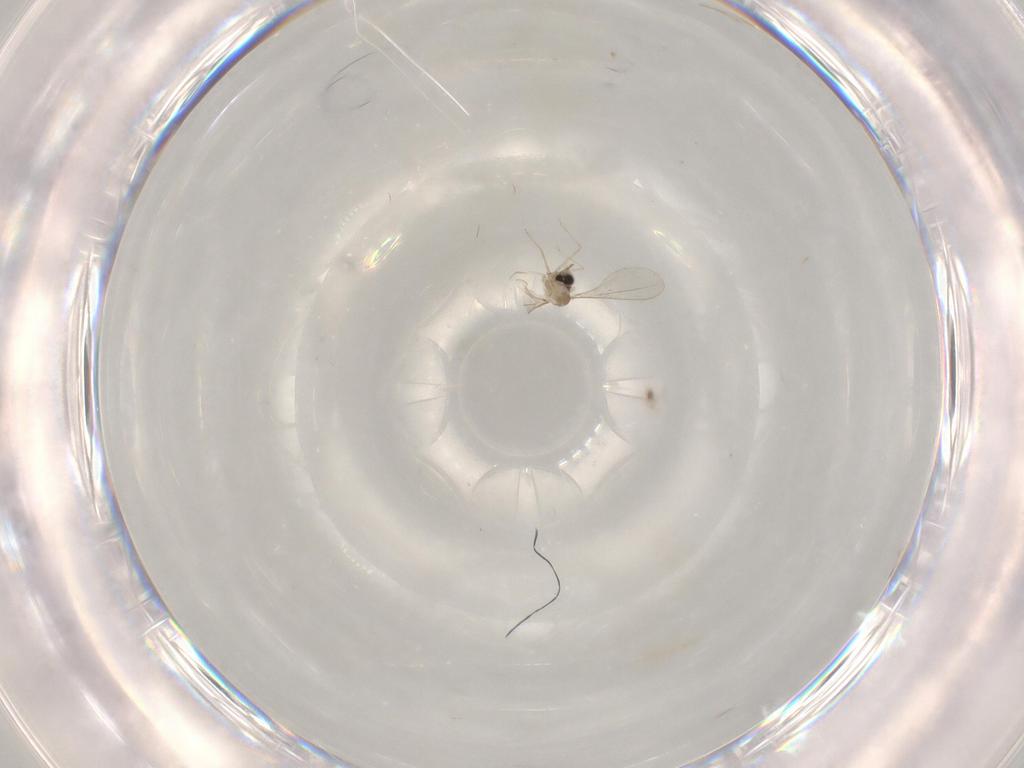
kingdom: Animalia
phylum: Arthropoda
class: Insecta
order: Diptera
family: Cecidomyiidae
